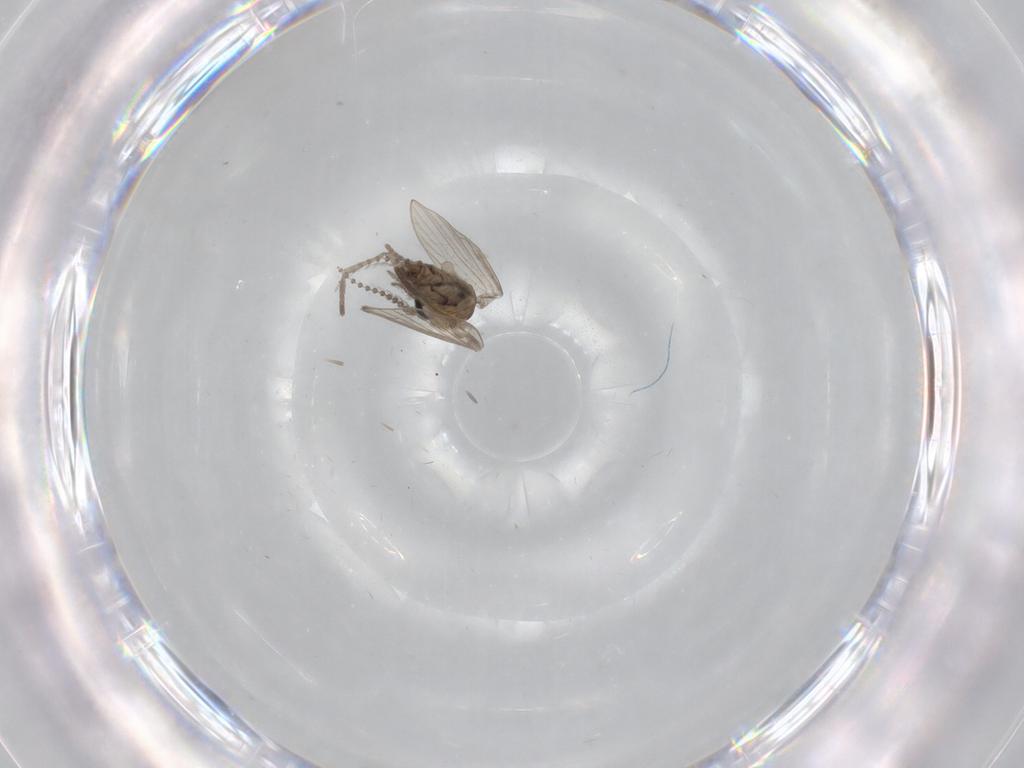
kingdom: Animalia
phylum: Arthropoda
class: Insecta
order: Diptera
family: Psychodidae
